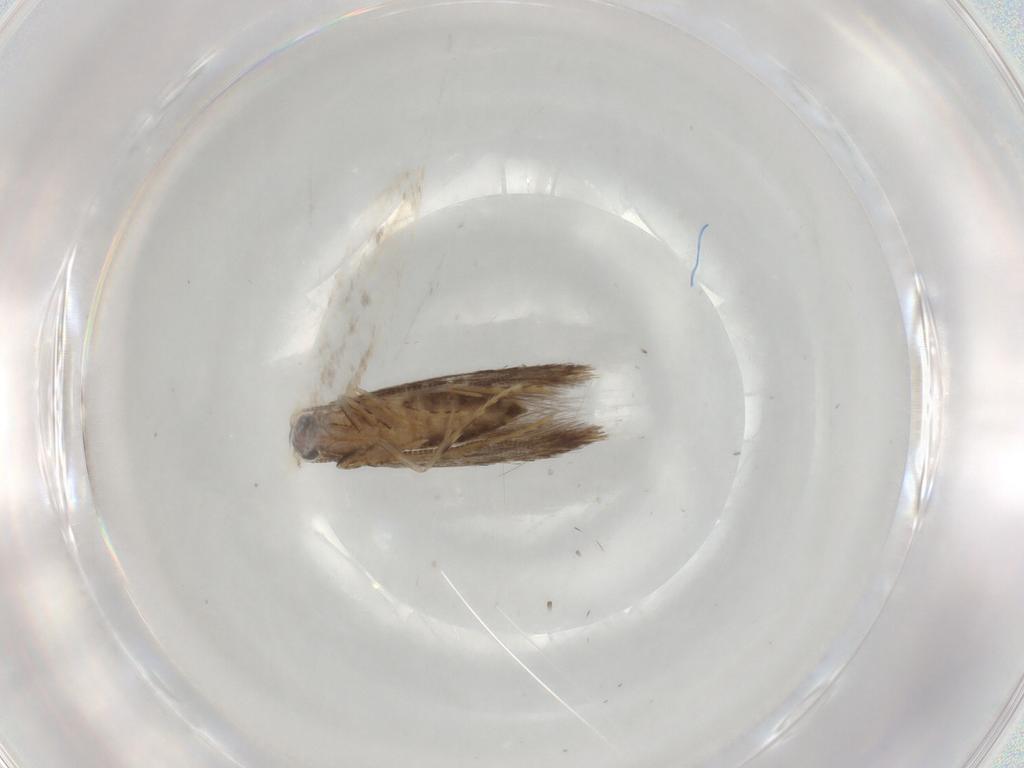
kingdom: Animalia
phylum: Arthropoda
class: Insecta
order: Lepidoptera
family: Tineidae
